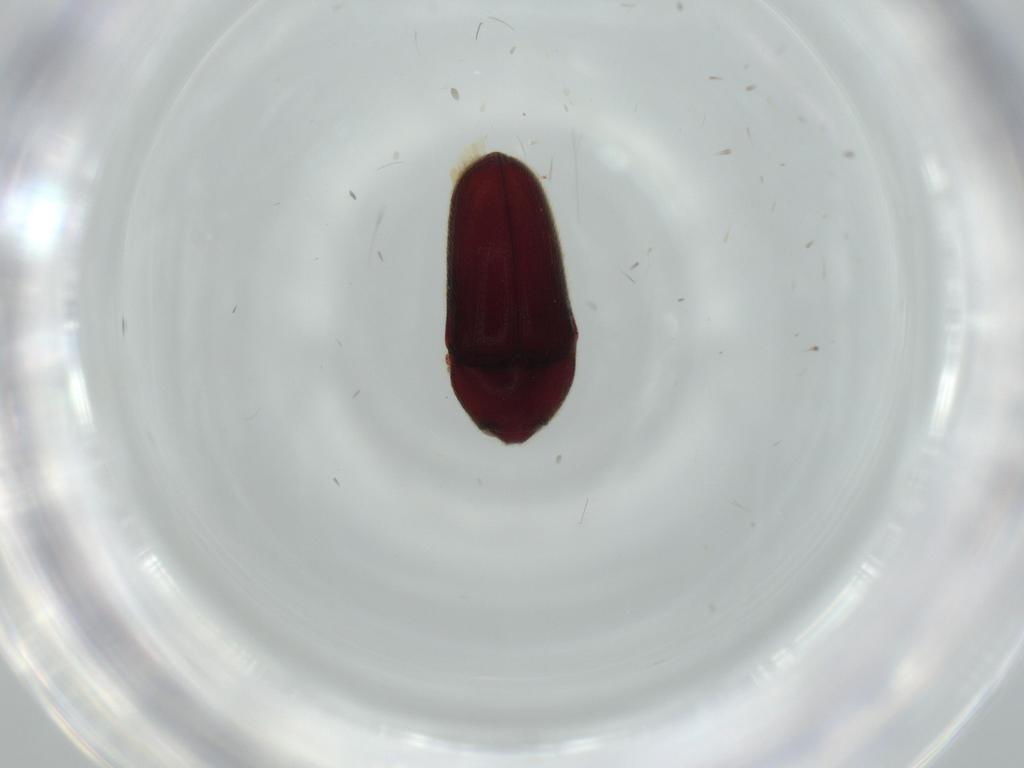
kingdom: Animalia
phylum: Arthropoda
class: Insecta
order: Coleoptera
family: Throscidae
